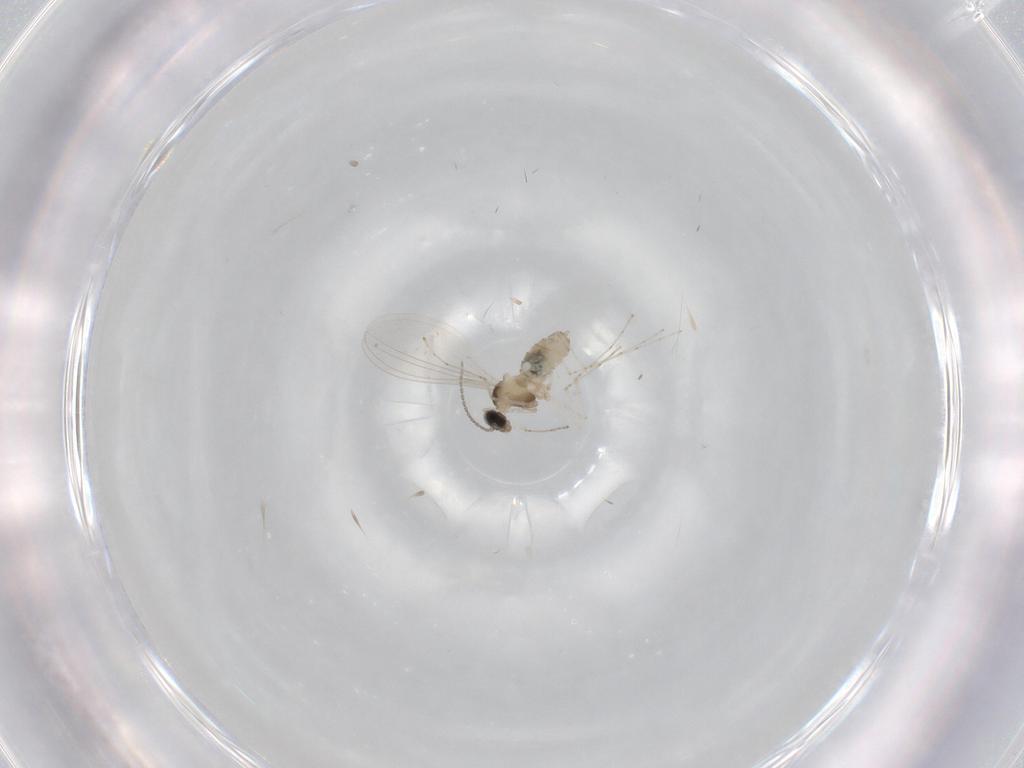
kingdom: Animalia
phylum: Arthropoda
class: Insecta
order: Diptera
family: Cecidomyiidae
